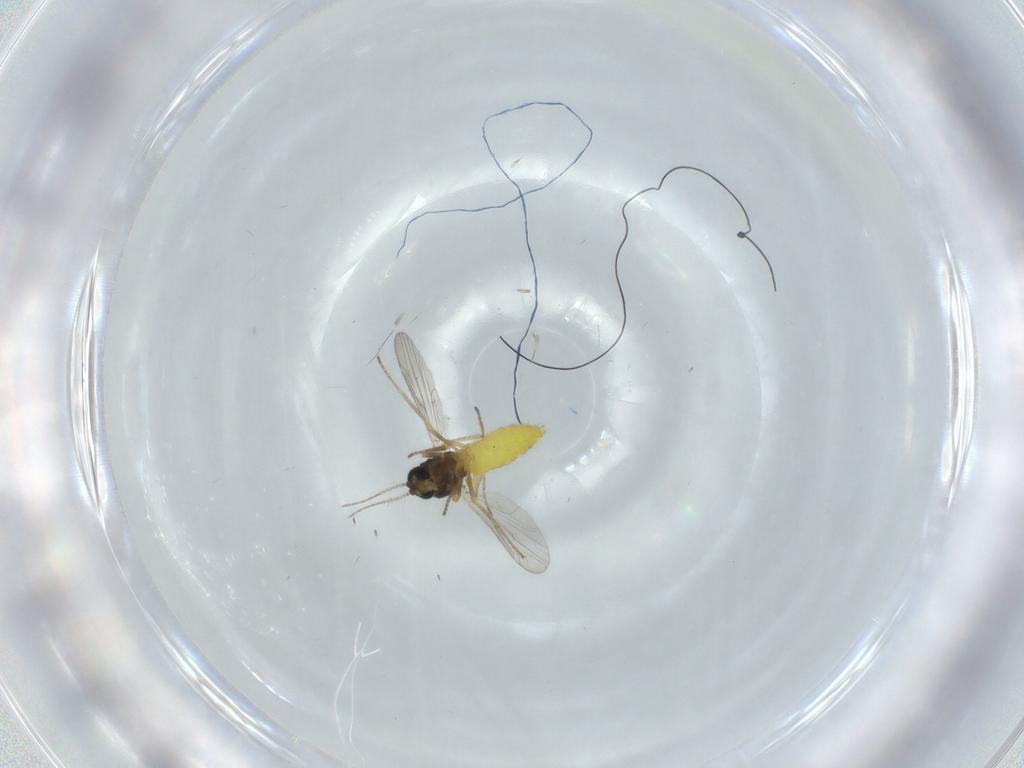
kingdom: Animalia
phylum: Arthropoda
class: Insecta
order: Diptera
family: Ceratopogonidae
